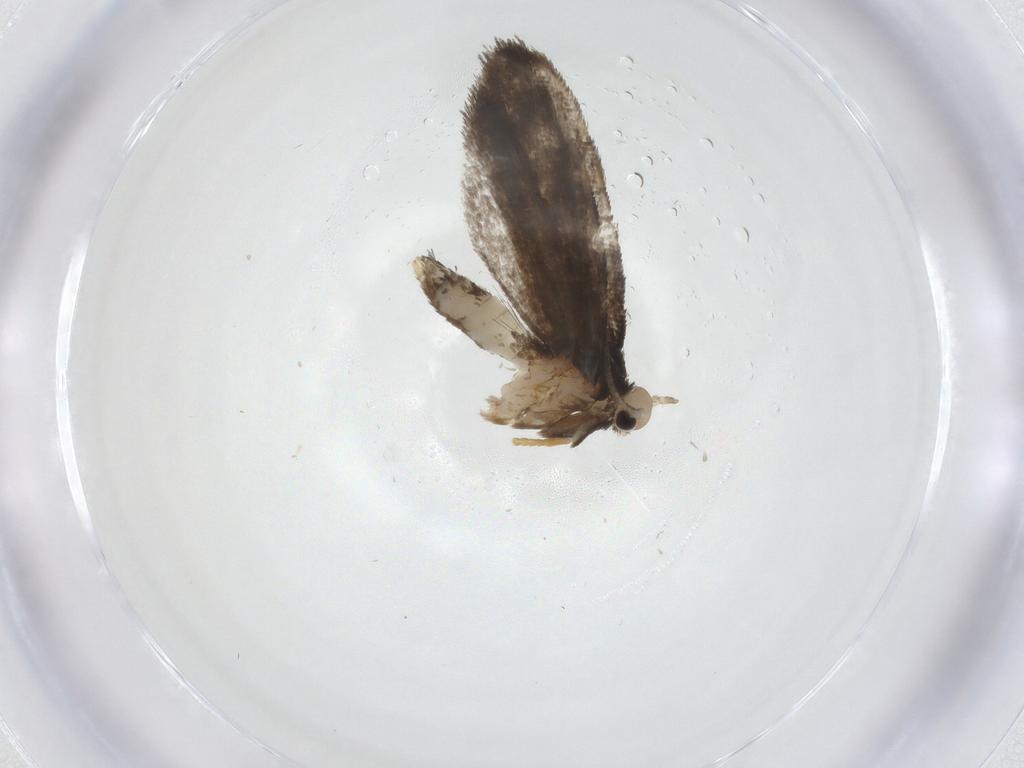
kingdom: Animalia
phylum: Arthropoda
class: Insecta
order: Lepidoptera
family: Psychidae
